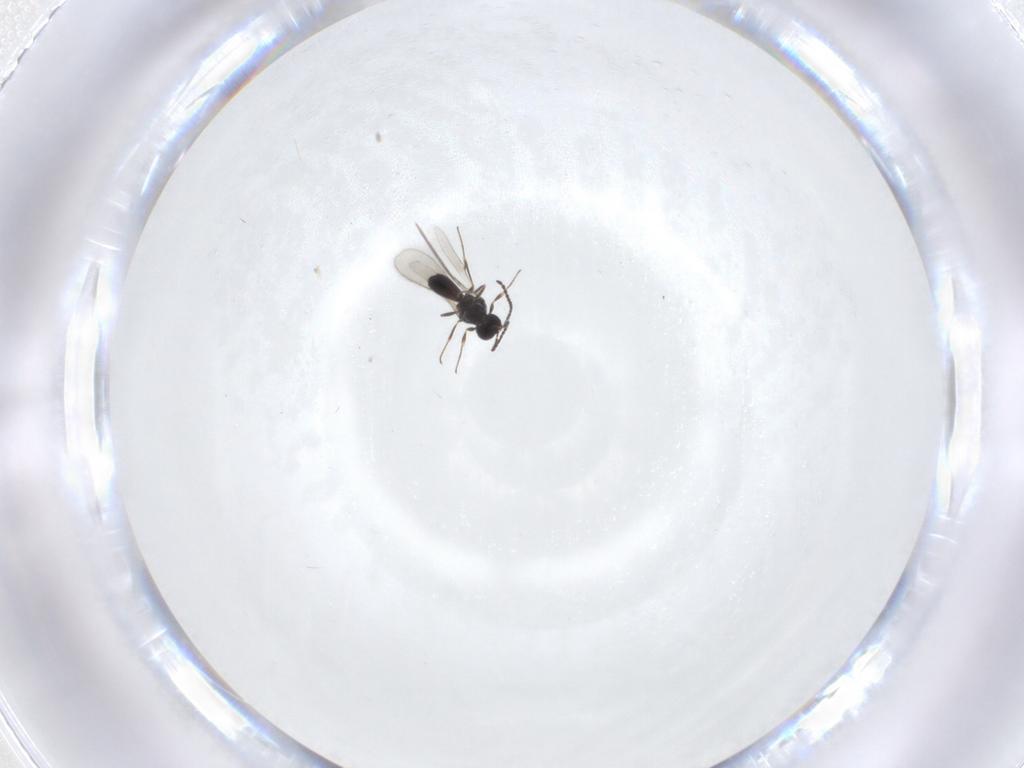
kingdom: Animalia
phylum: Arthropoda
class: Insecta
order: Hymenoptera
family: Scelionidae
